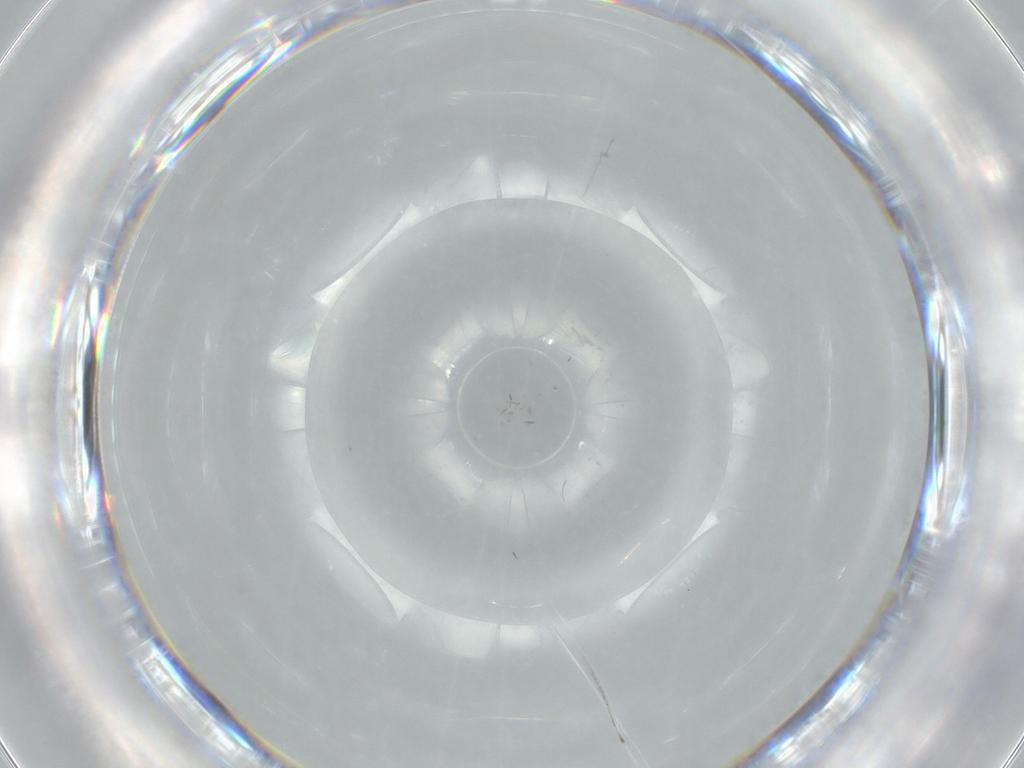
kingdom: Animalia
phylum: Arthropoda
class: Insecta
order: Diptera
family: Cecidomyiidae
